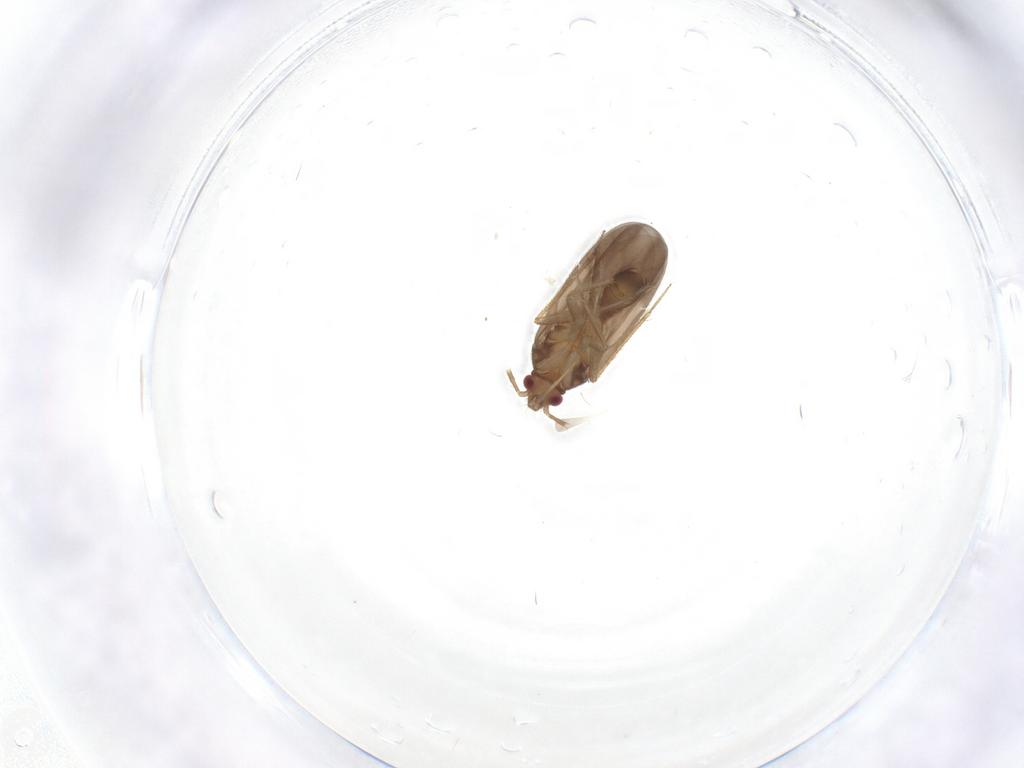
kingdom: Animalia
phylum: Arthropoda
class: Insecta
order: Hemiptera
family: Ceratocombidae
